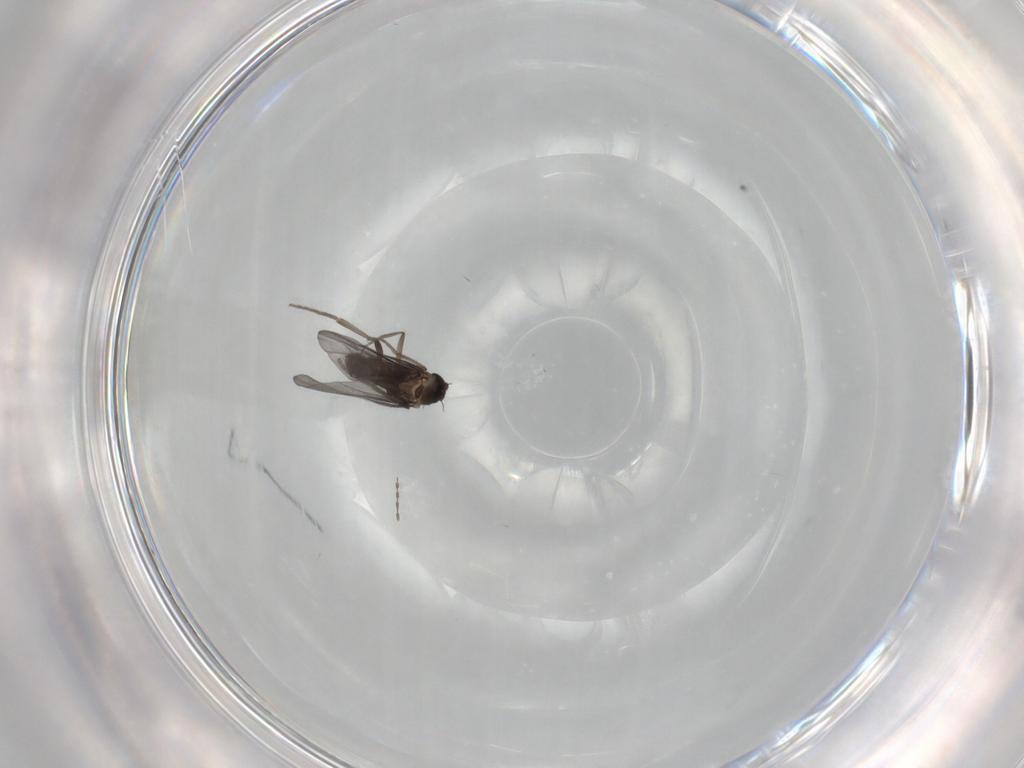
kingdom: Animalia
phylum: Arthropoda
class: Insecta
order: Diptera
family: Phoridae
